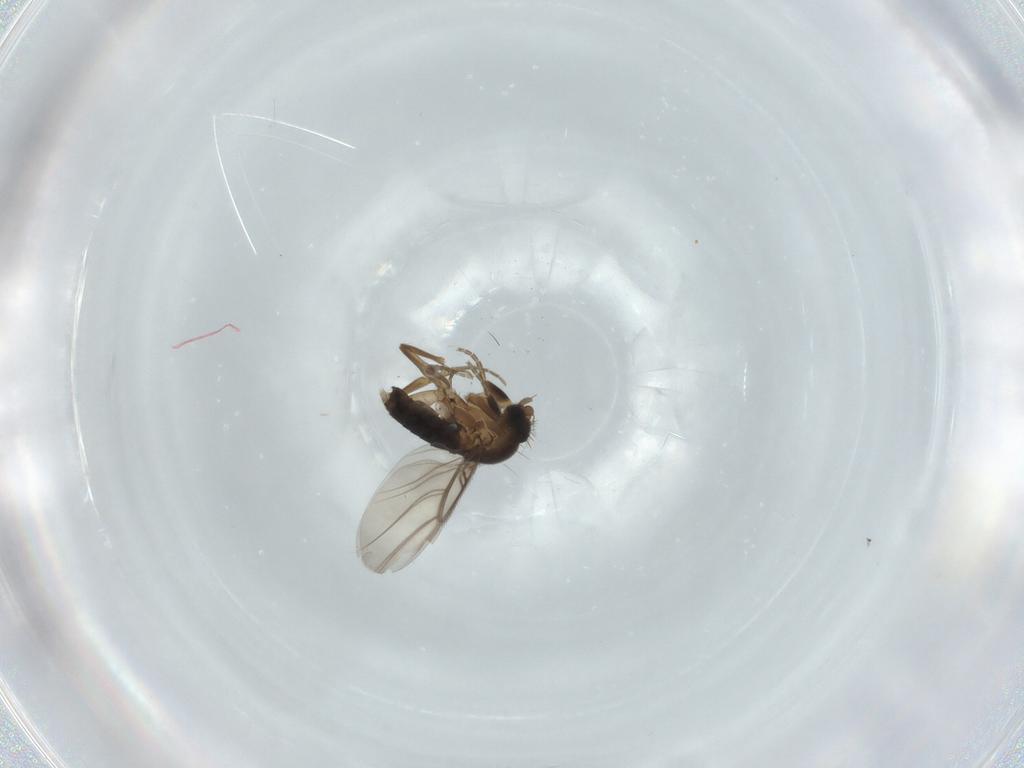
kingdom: Animalia
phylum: Arthropoda
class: Insecta
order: Diptera
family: Phoridae
